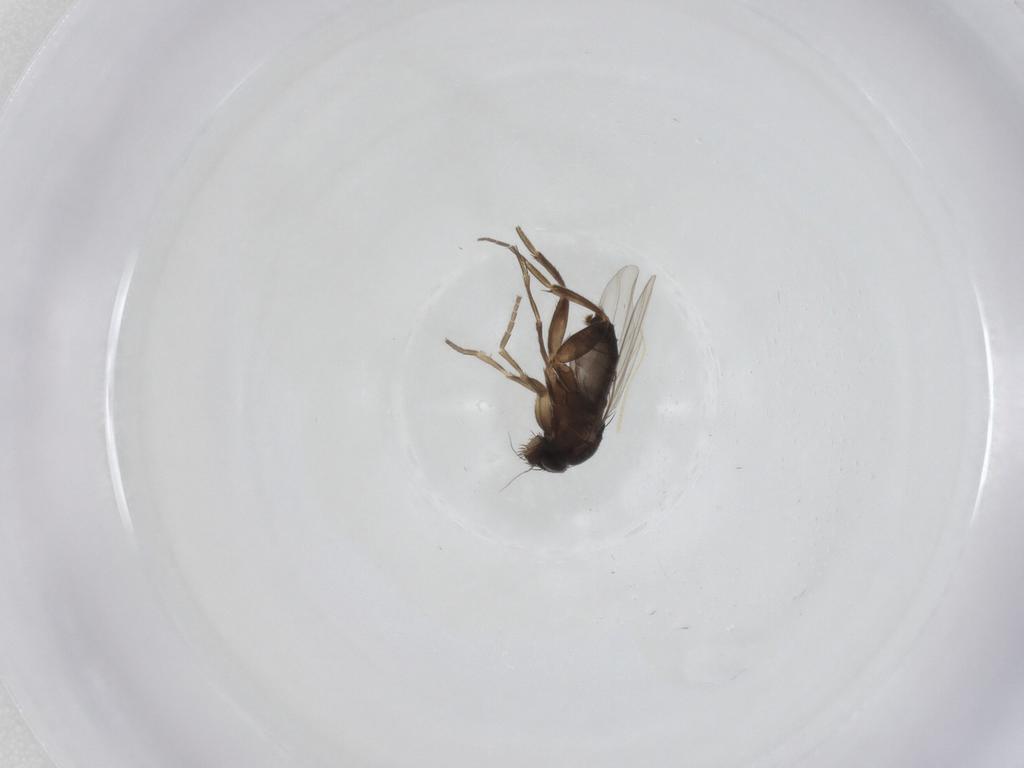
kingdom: Animalia
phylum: Arthropoda
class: Insecta
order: Diptera
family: Phoridae
